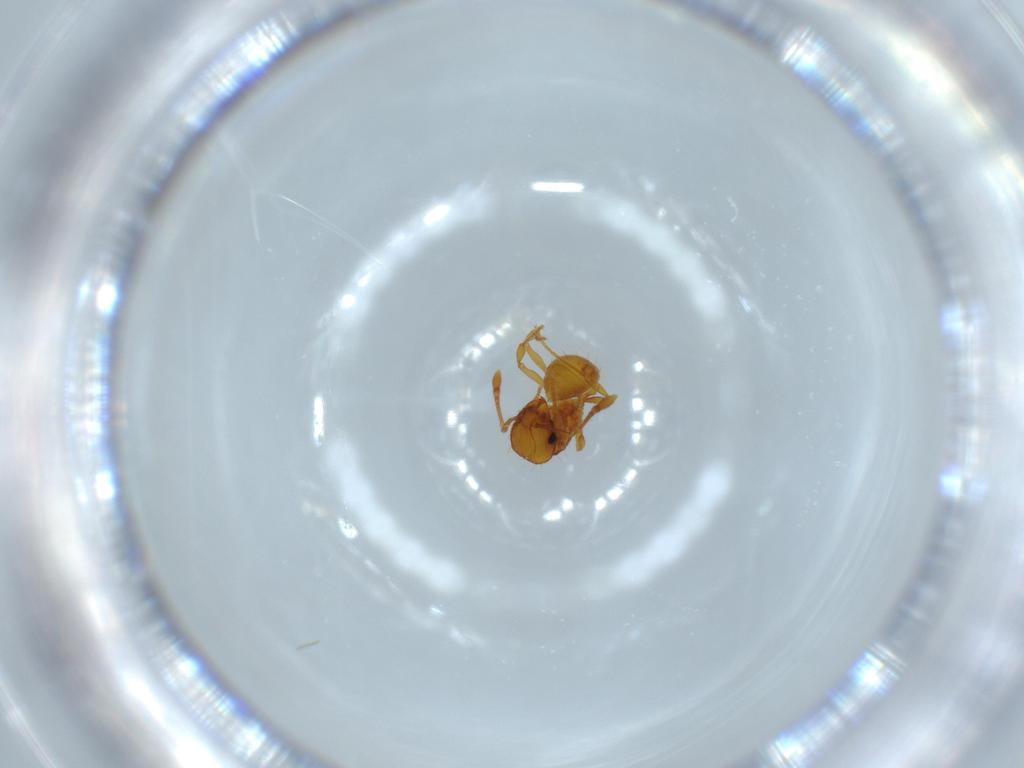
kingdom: Animalia
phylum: Arthropoda
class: Insecta
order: Hymenoptera
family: Formicidae
